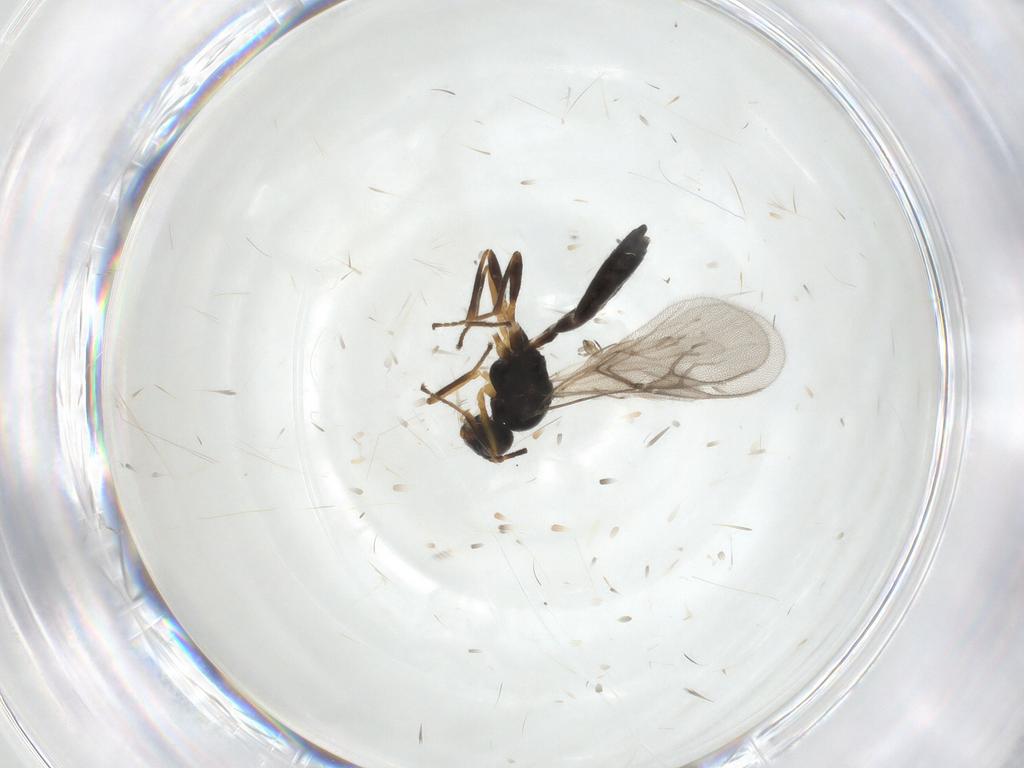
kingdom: Animalia
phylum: Arthropoda
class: Insecta
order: Hymenoptera
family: Braconidae
